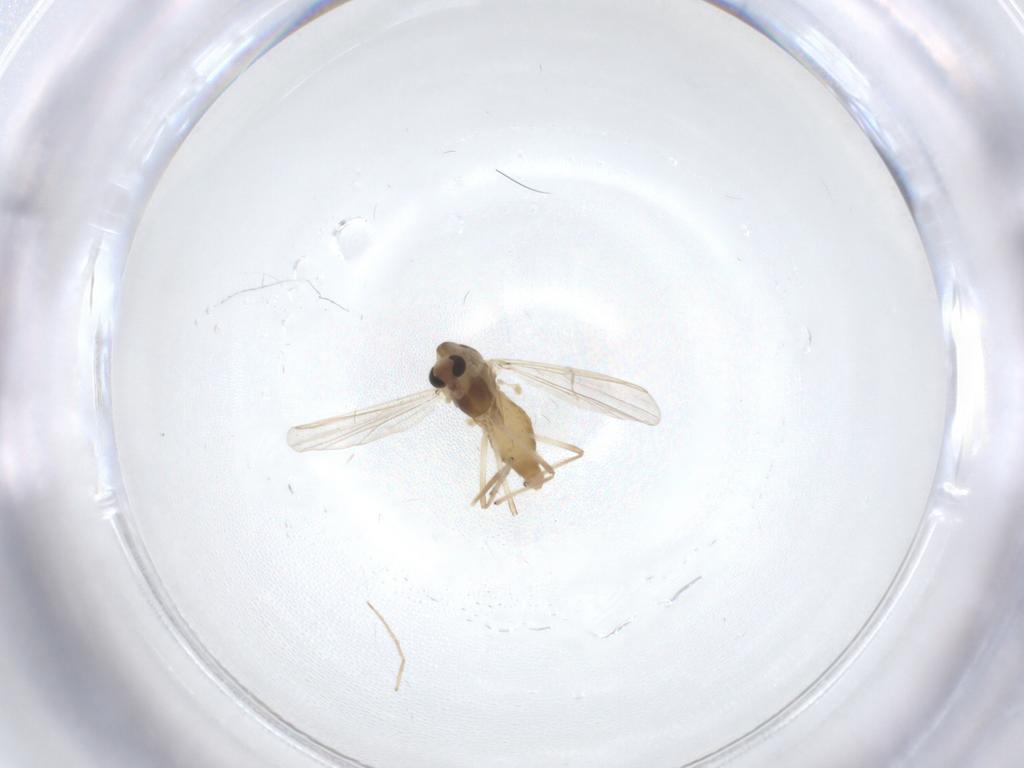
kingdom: Animalia
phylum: Arthropoda
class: Insecta
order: Diptera
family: Chironomidae
